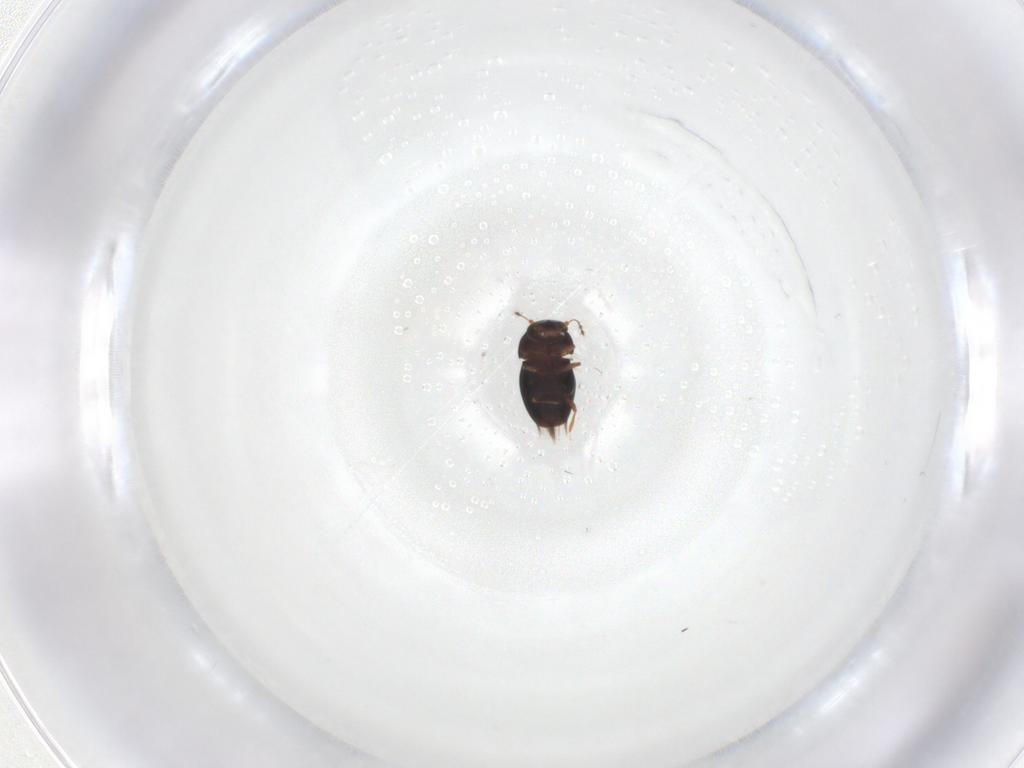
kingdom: Animalia
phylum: Arthropoda
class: Insecta
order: Coleoptera
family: Ptiliidae
